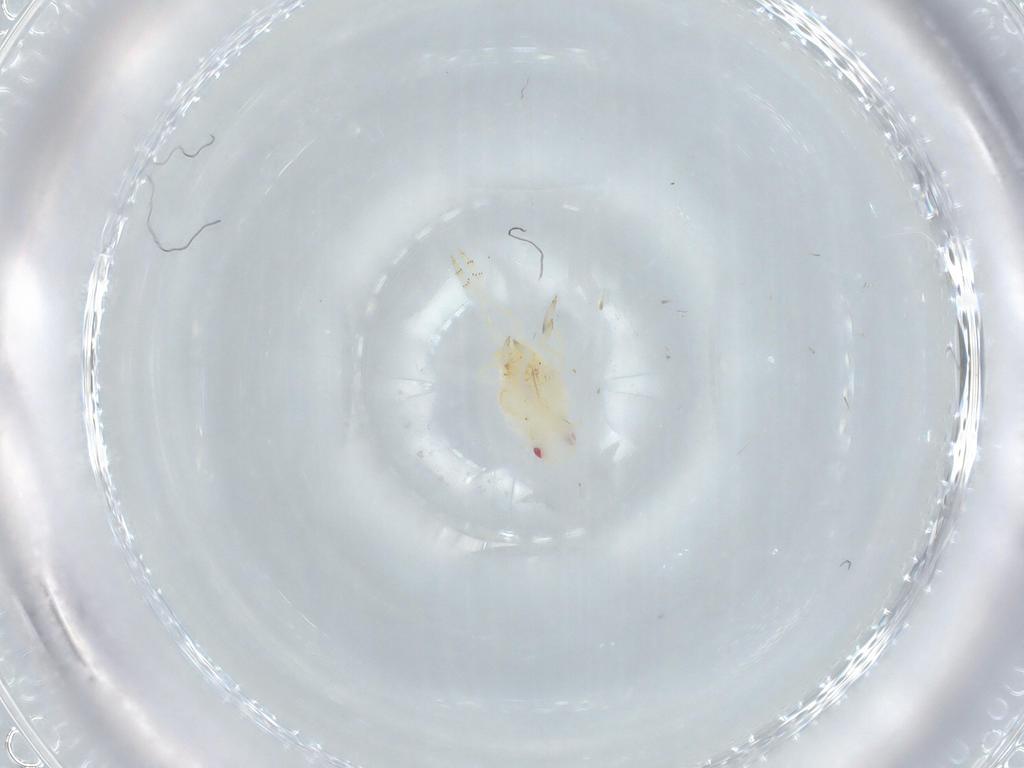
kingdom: Animalia
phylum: Arthropoda
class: Insecta
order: Hemiptera
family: Flatidae
